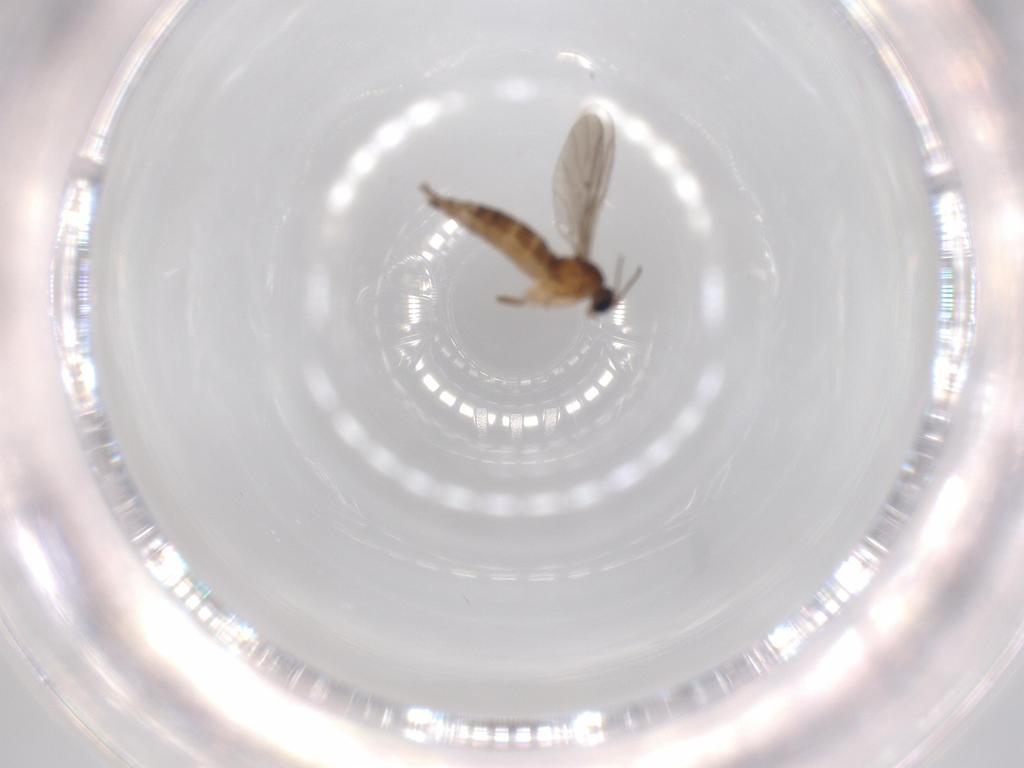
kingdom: Animalia
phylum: Arthropoda
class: Insecta
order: Diptera
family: Sciaridae
